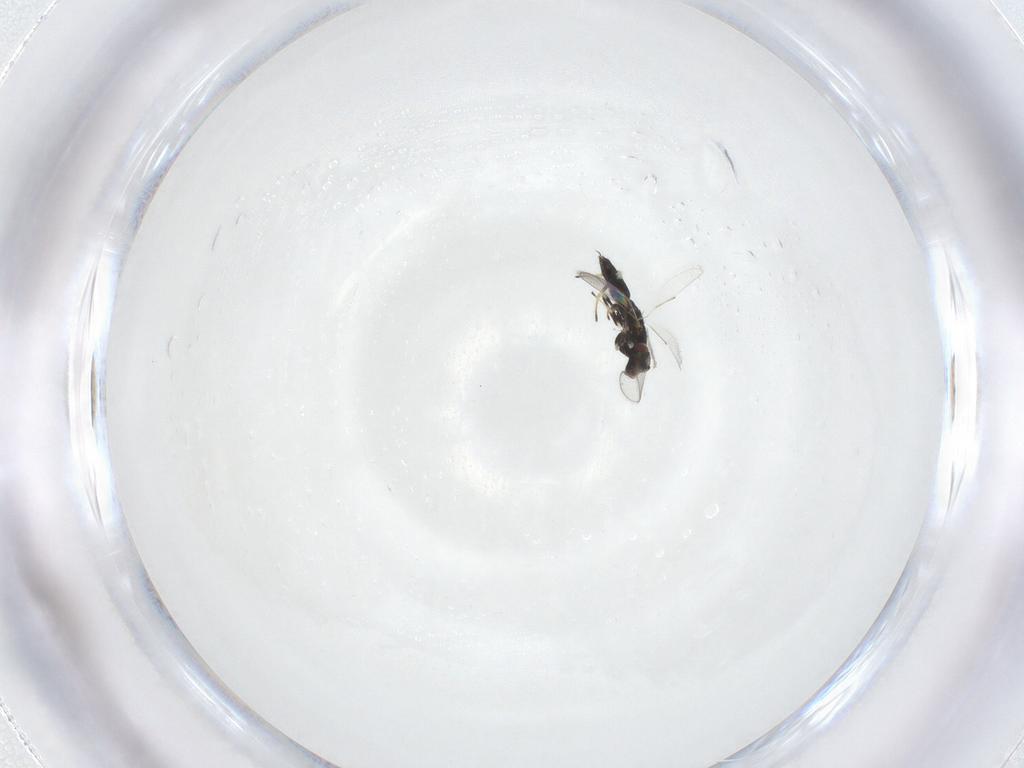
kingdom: Animalia
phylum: Arthropoda
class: Insecta
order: Hymenoptera
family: Eulophidae
